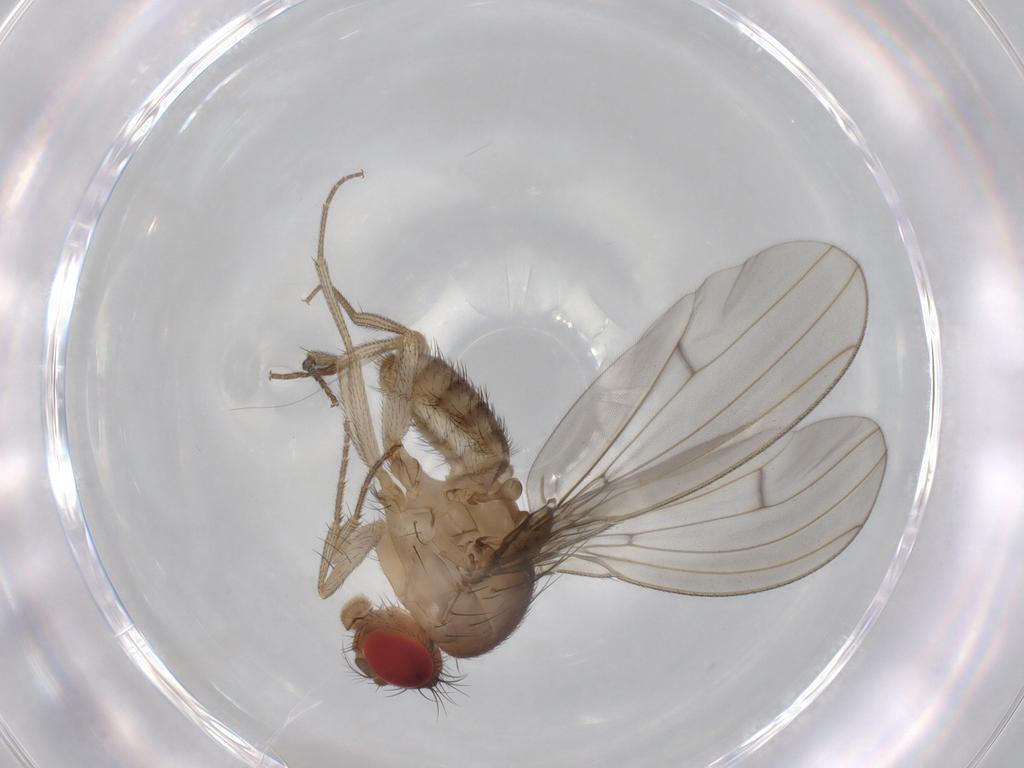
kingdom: Animalia
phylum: Arthropoda
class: Insecta
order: Diptera
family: Drosophilidae
